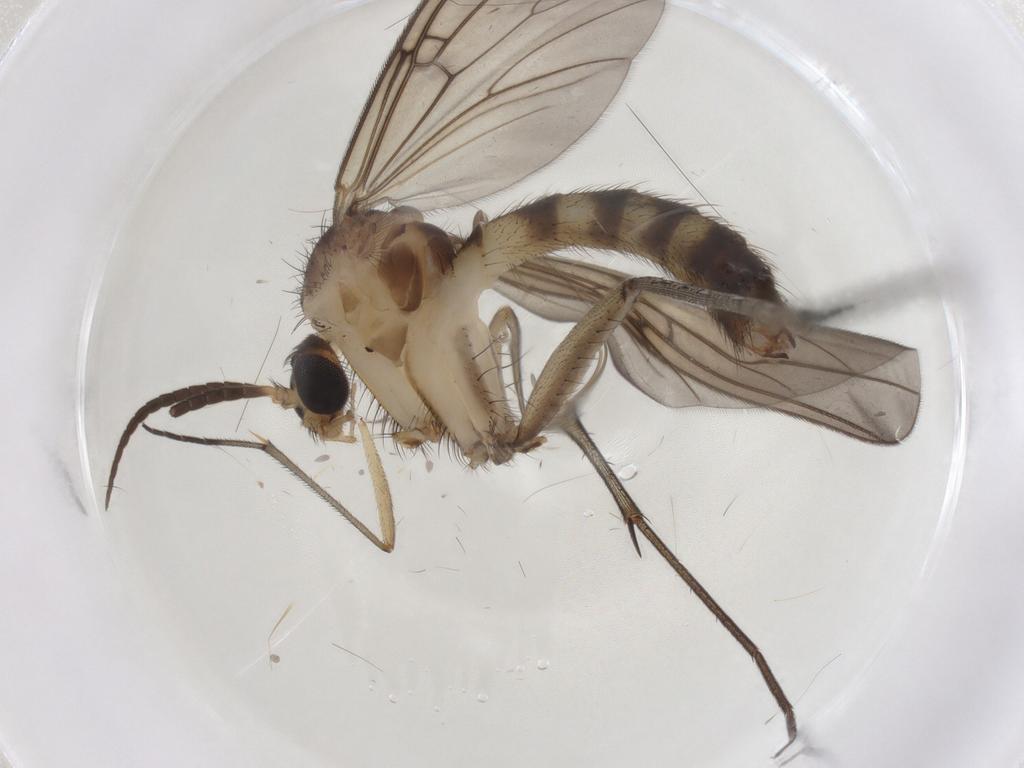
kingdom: Animalia
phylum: Arthropoda
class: Insecta
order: Diptera
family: Mycetophilidae
